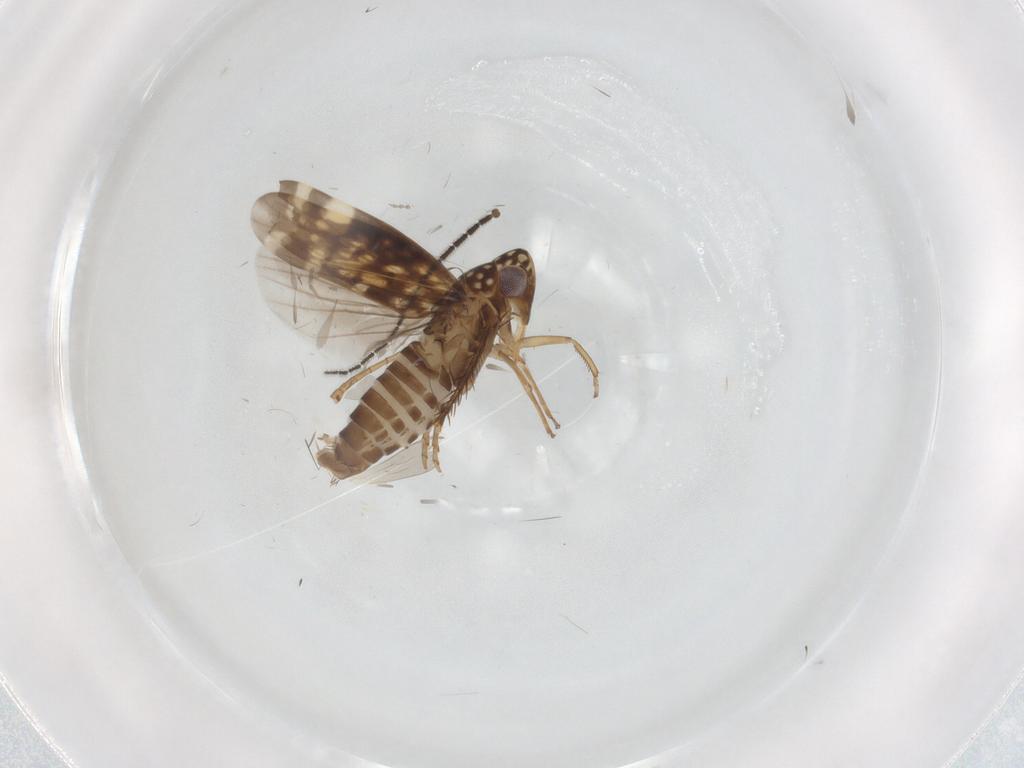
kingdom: Animalia
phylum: Arthropoda
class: Insecta
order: Hemiptera
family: Cicadellidae
